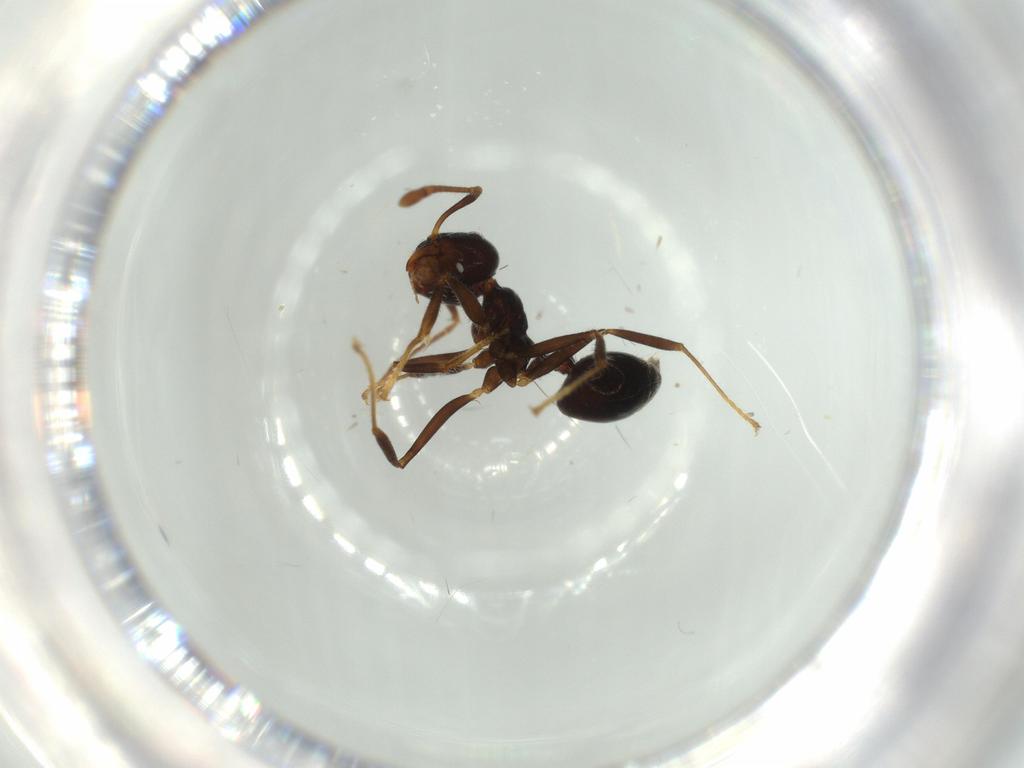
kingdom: Animalia
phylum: Arthropoda
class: Insecta
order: Hymenoptera
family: Formicidae
